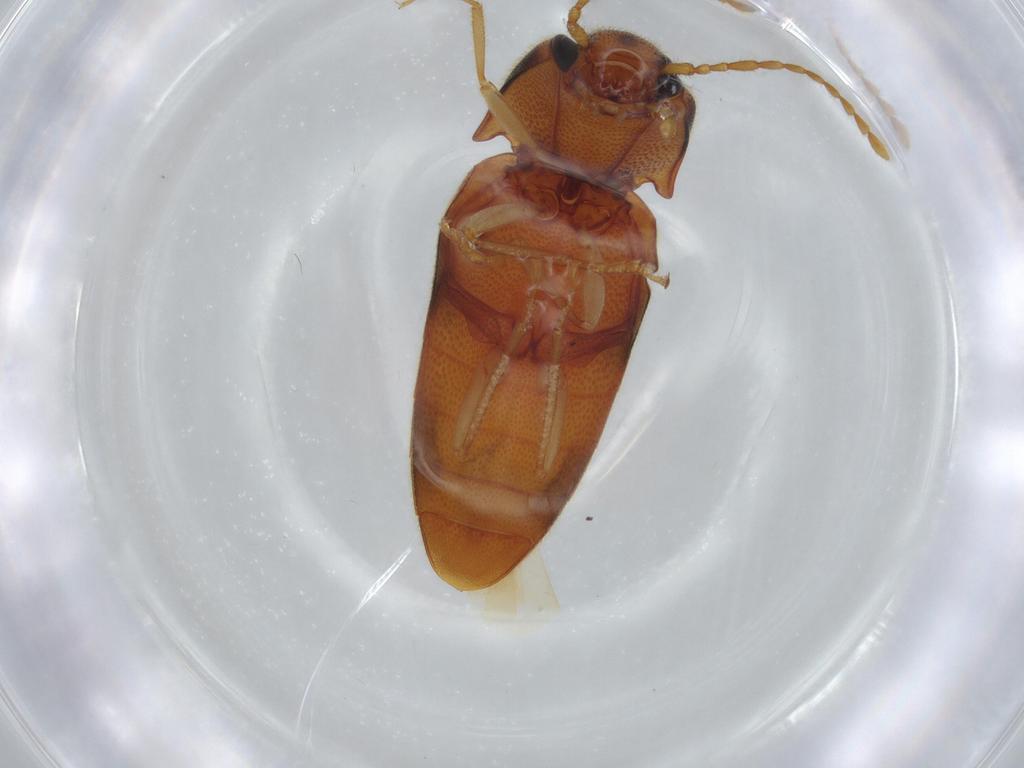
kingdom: Animalia
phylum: Arthropoda
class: Insecta
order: Coleoptera
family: Elateridae
